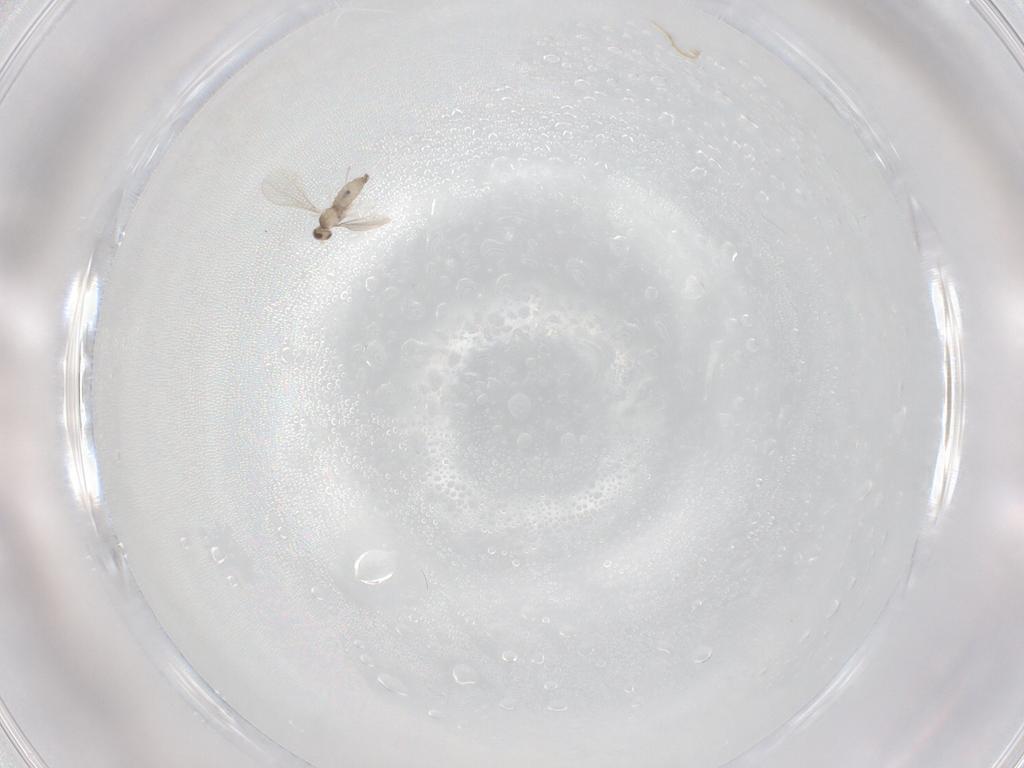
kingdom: Animalia
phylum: Arthropoda
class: Insecta
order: Diptera
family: Cecidomyiidae
